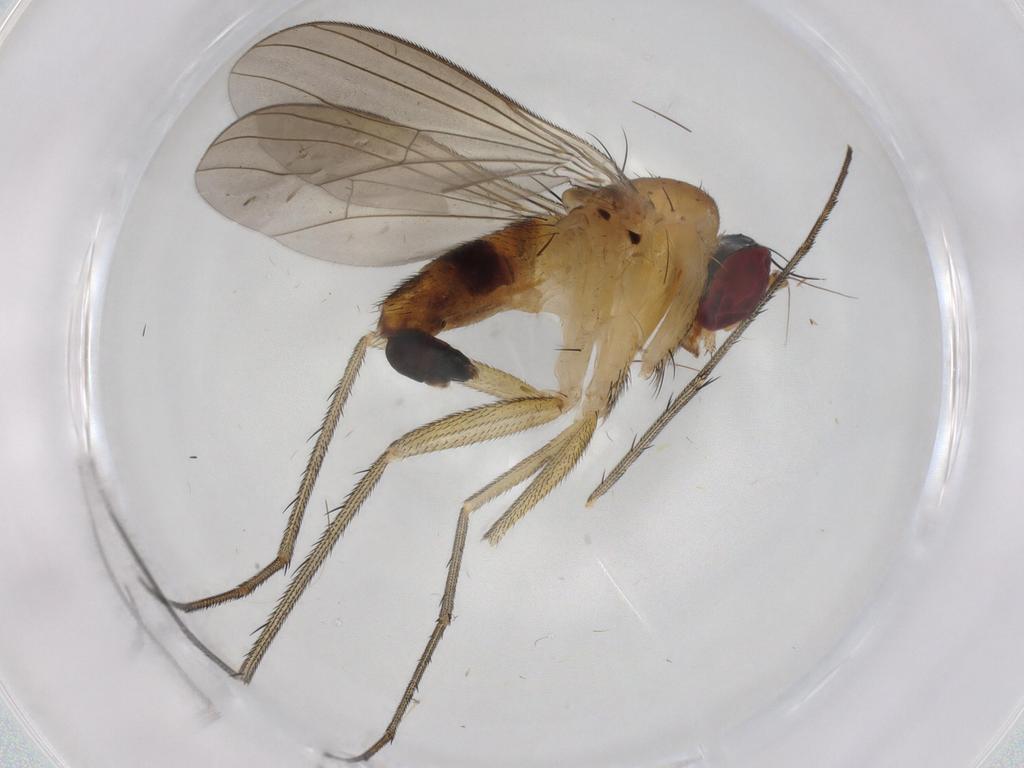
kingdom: Animalia
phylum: Arthropoda
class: Insecta
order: Diptera
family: Dolichopodidae
